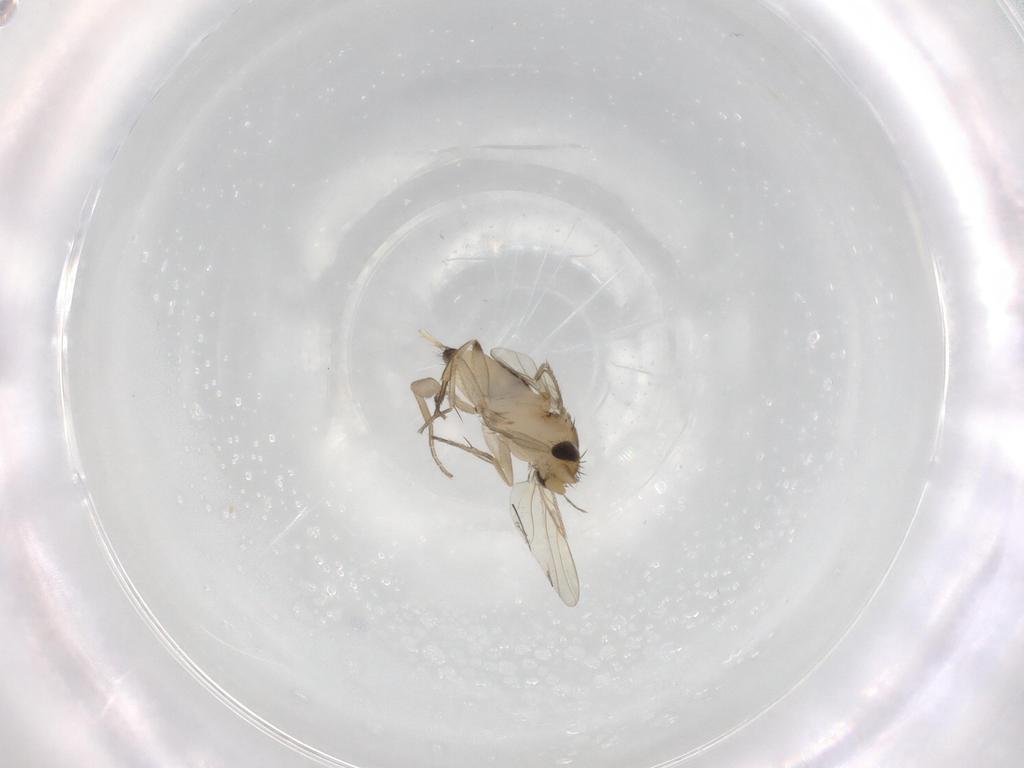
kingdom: Animalia
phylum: Arthropoda
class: Insecta
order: Diptera
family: Phoridae
